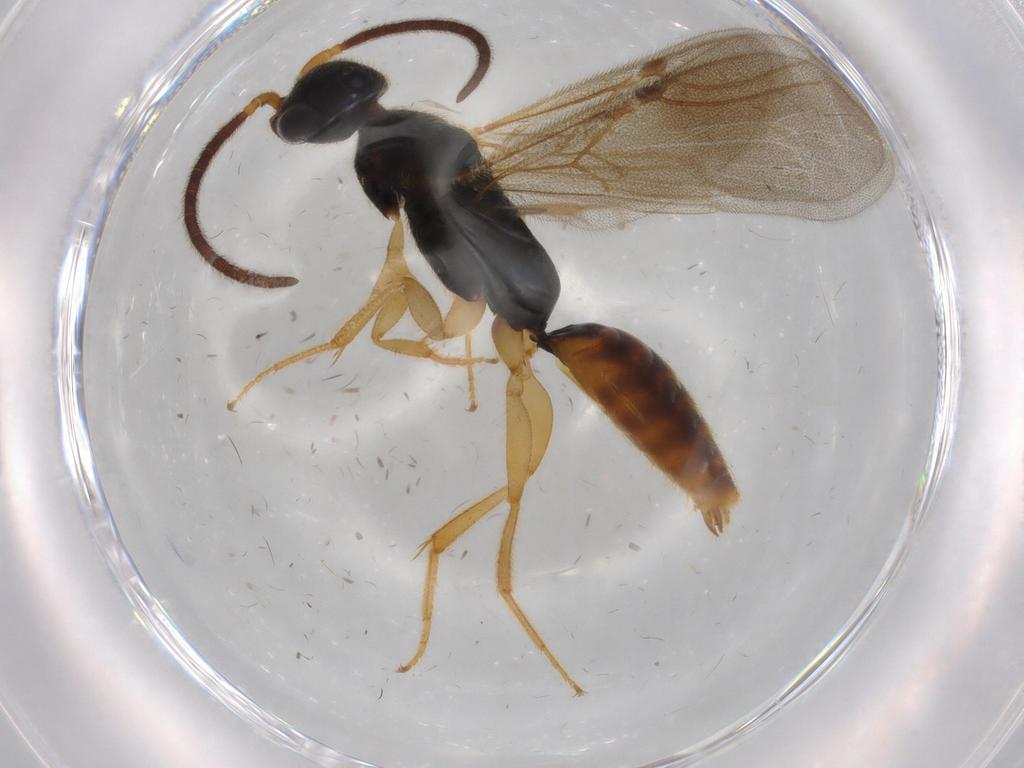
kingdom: Animalia
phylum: Arthropoda
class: Insecta
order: Hymenoptera
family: Bethylidae
